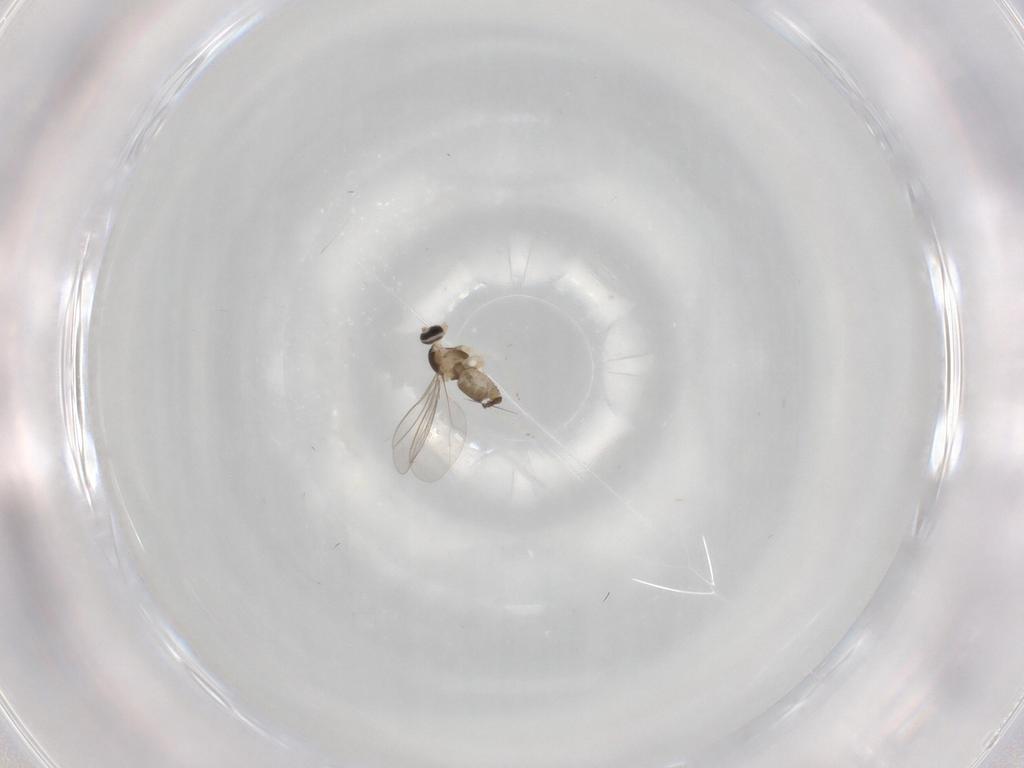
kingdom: Animalia
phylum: Arthropoda
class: Insecta
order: Diptera
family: Cecidomyiidae
